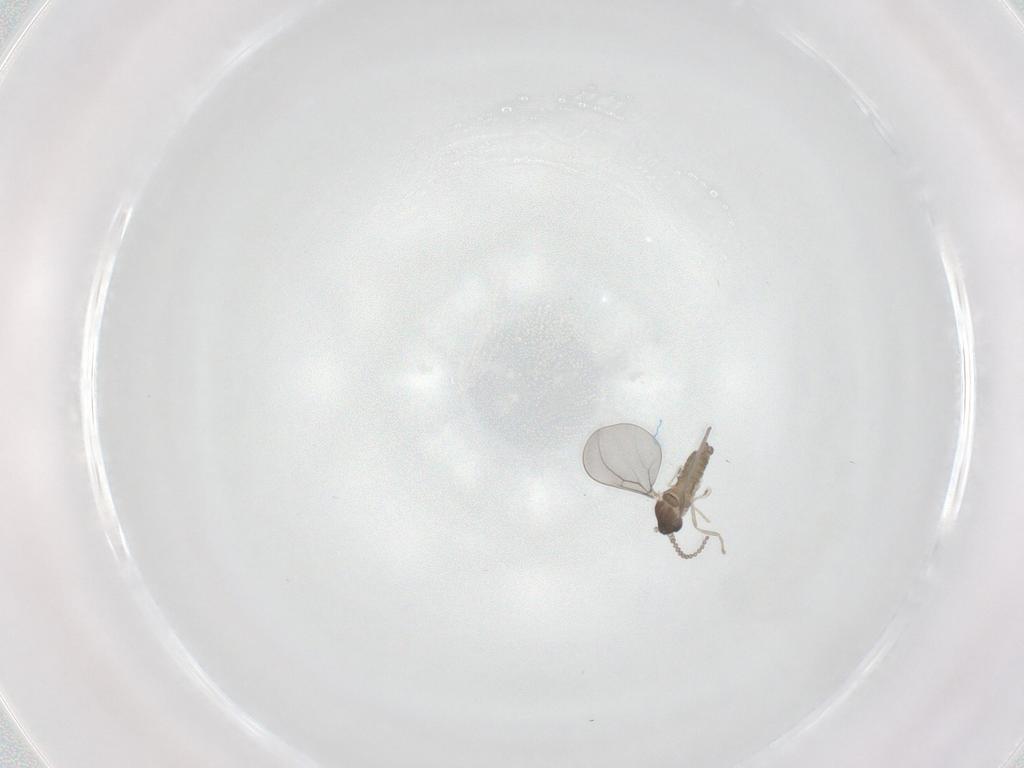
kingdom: Animalia
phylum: Arthropoda
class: Insecta
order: Diptera
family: Cecidomyiidae
